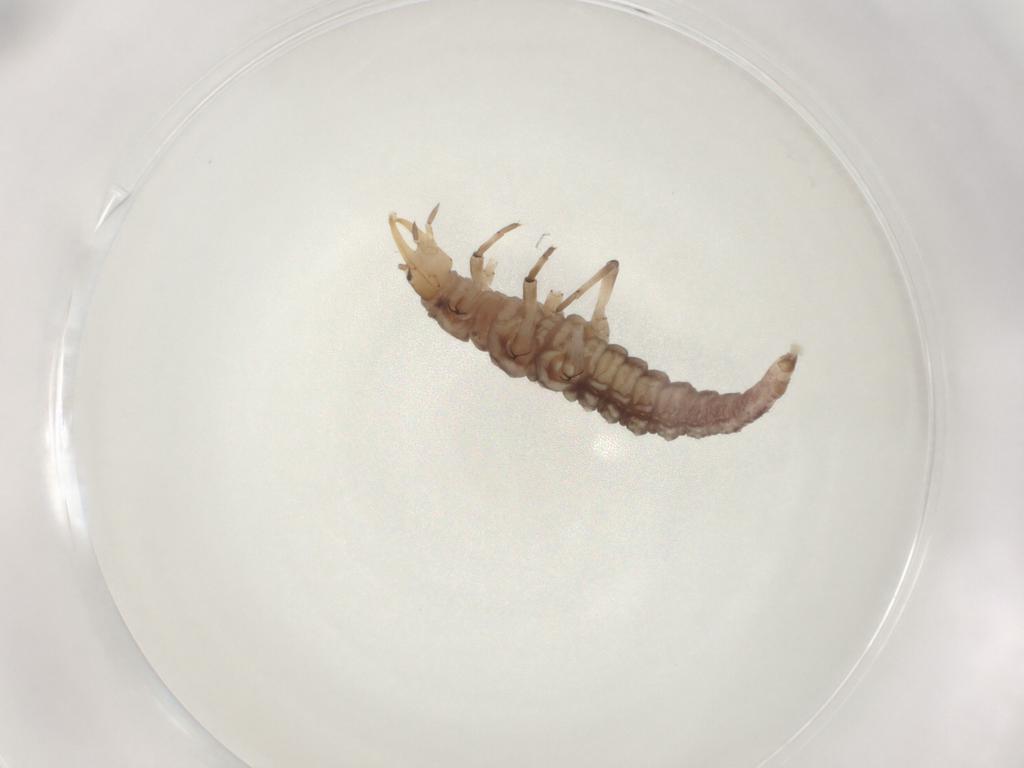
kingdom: Animalia
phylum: Arthropoda
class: Insecta
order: Neuroptera
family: Hemerobiidae
